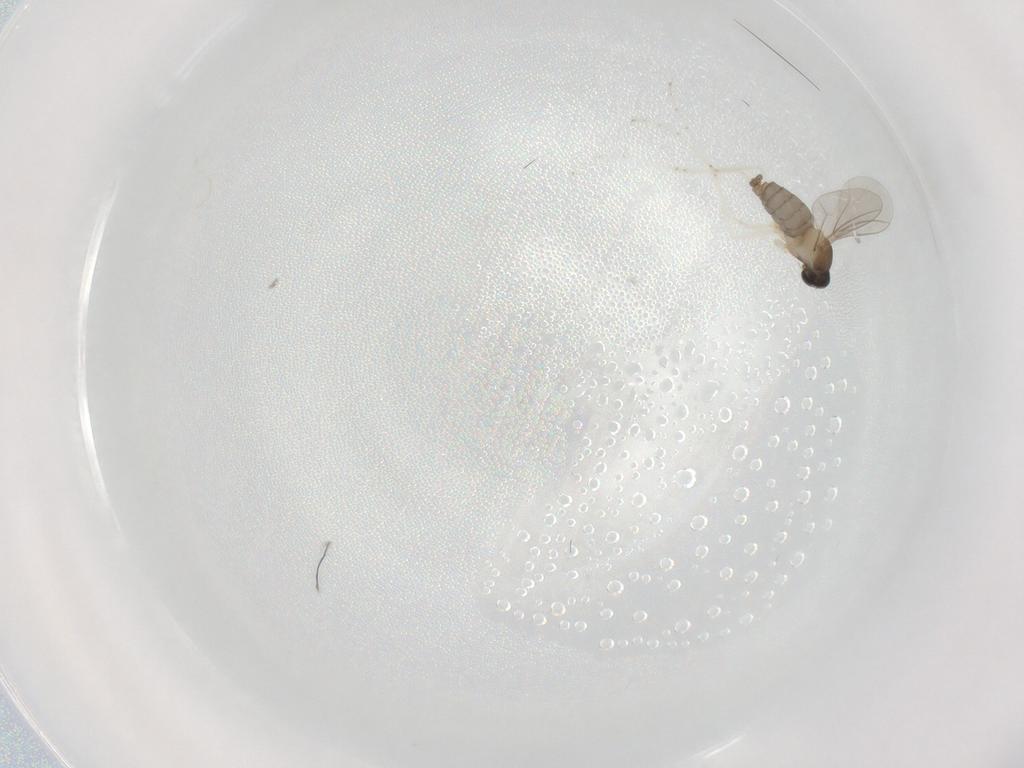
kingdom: Animalia
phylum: Arthropoda
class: Insecta
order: Diptera
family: Cecidomyiidae
